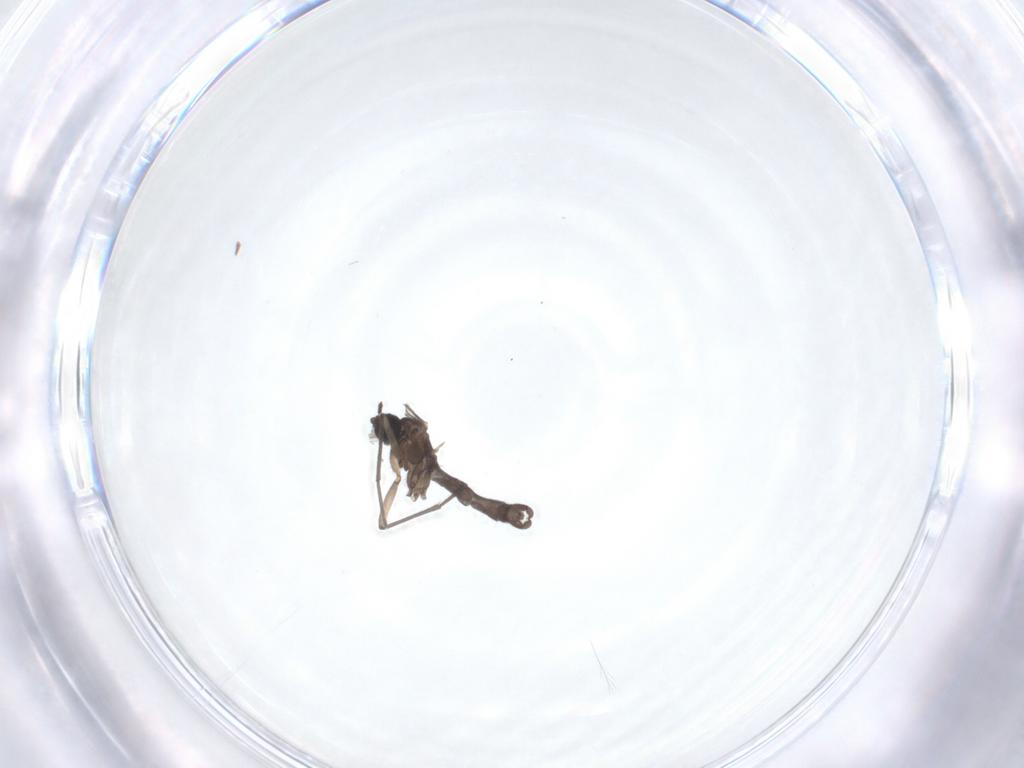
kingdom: Animalia
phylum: Arthropoda
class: Insecta
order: Diptera
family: Sciaridae
